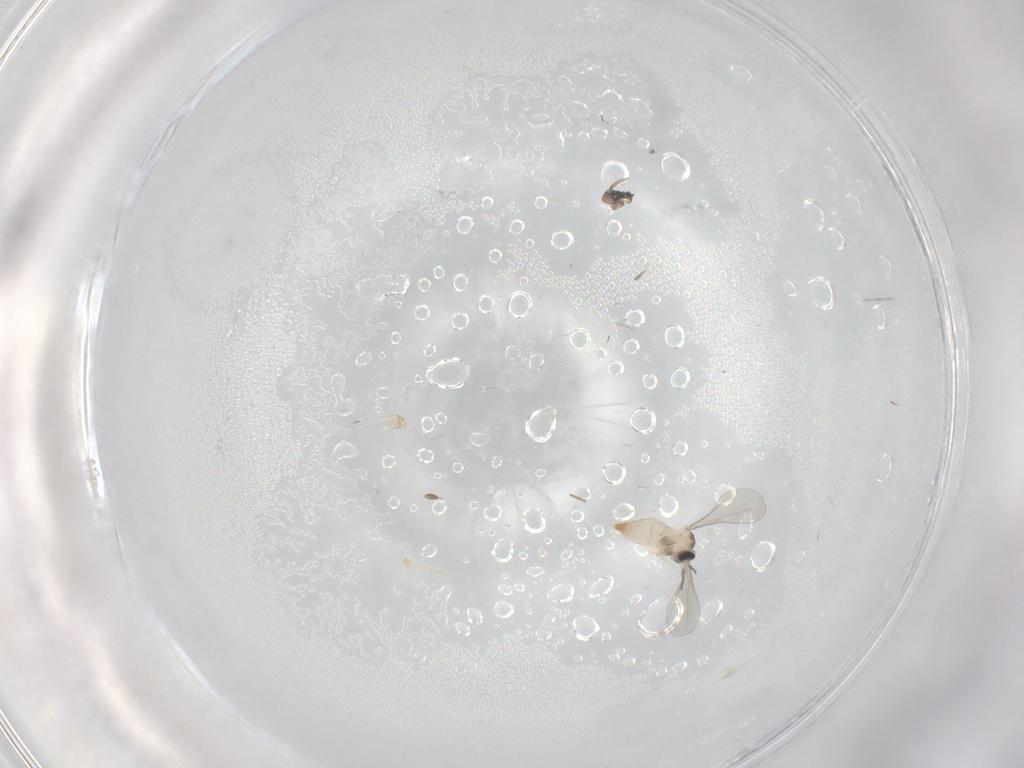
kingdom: Animalia
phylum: Arthropoda
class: Insecta
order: Diptera
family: Cecidomyiidae
